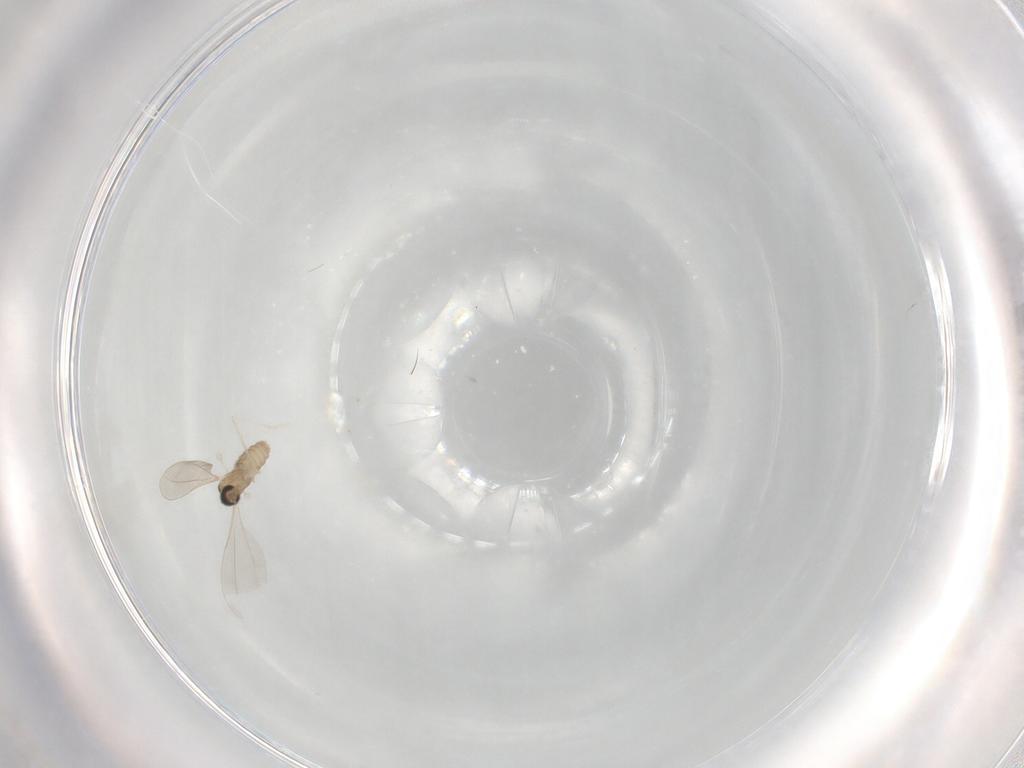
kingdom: Animalia
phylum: Arthropoda
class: Insecta
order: Diptera
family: Cecidomyiidae
